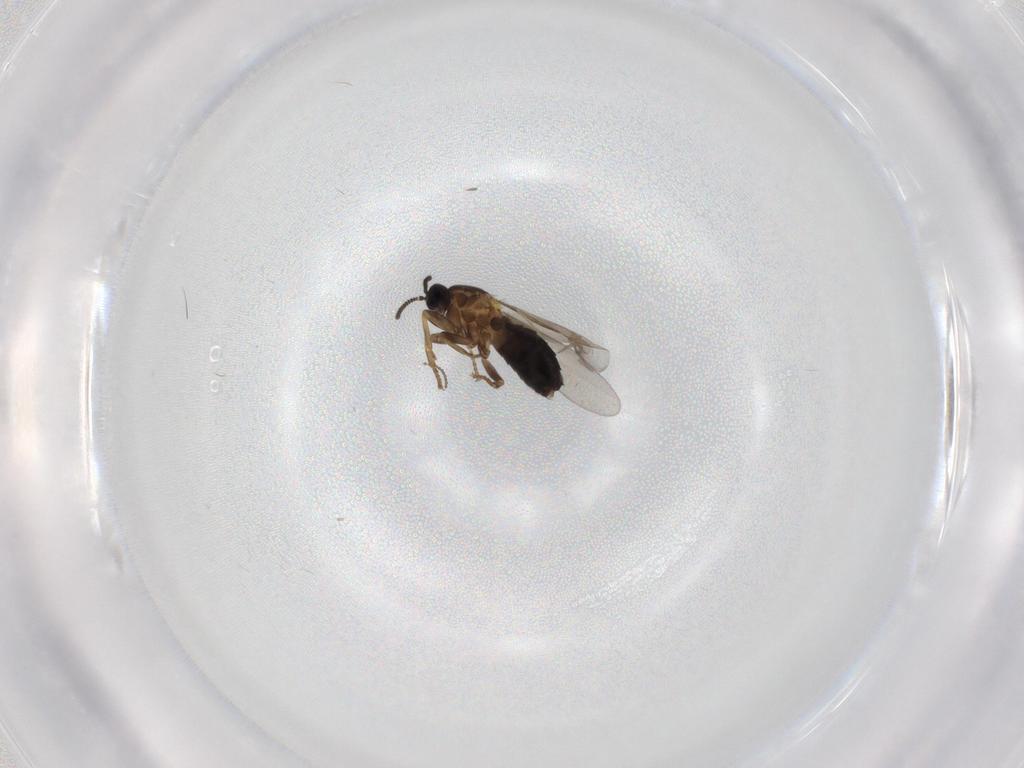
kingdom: Animalia
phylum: Arthropoda
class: Insecta
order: Diptera
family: Scatopsidae
